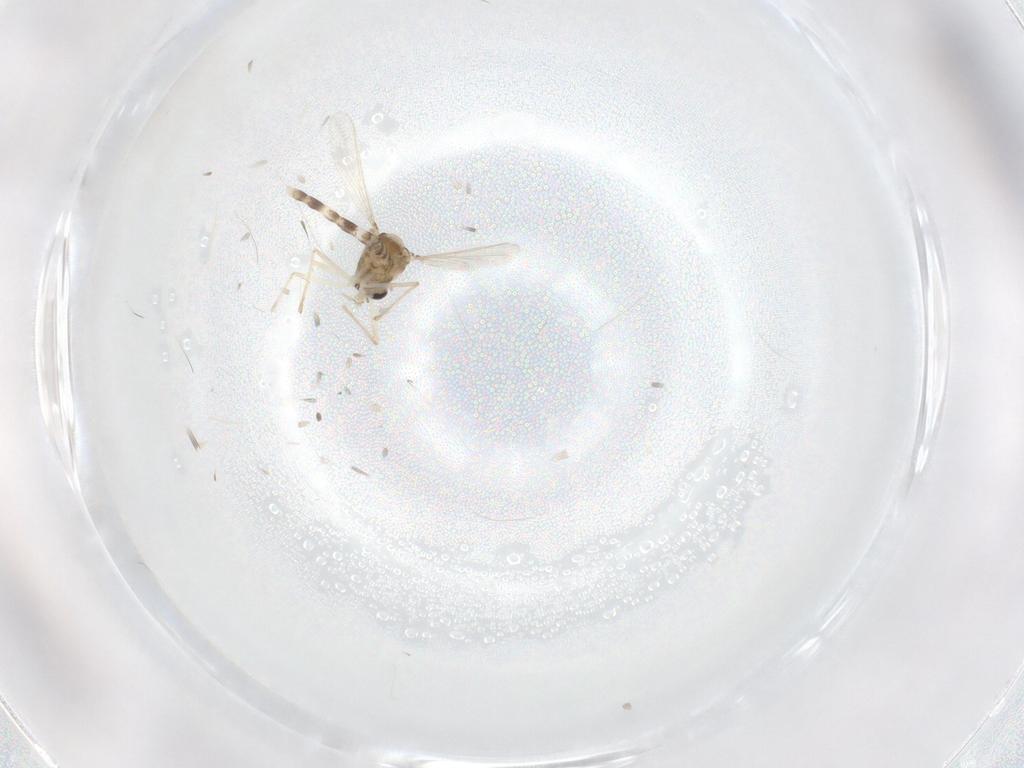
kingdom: Animalia
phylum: Arthropoda
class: Insecta
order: Diptera
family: Chironomidae
